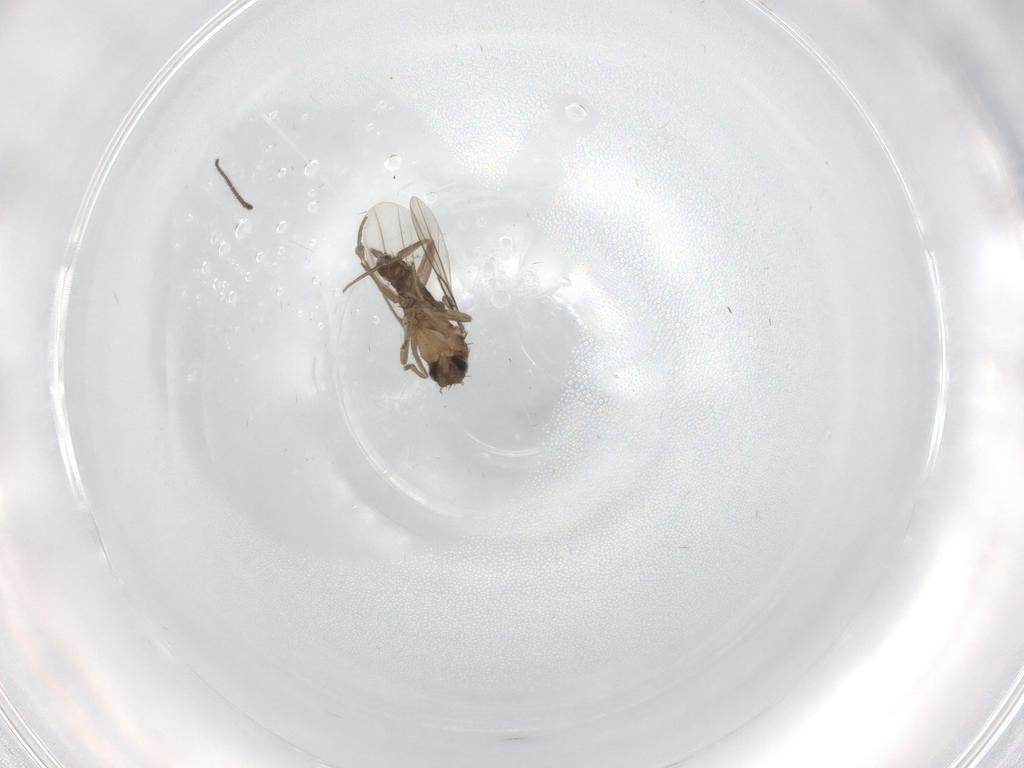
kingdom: Animalia
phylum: Arthropoda
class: Insecta
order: Diptera
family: Sciaridae
